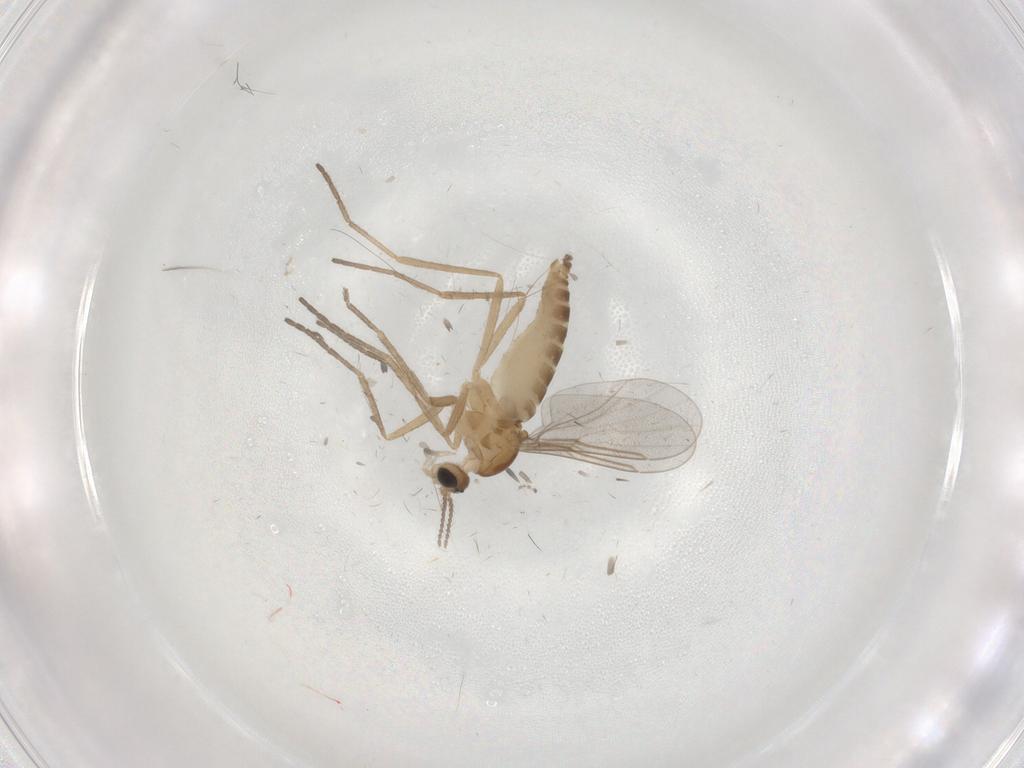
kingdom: Animalia
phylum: Arthropoda
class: Insecta
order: Diptera
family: Cecidomyiidae
